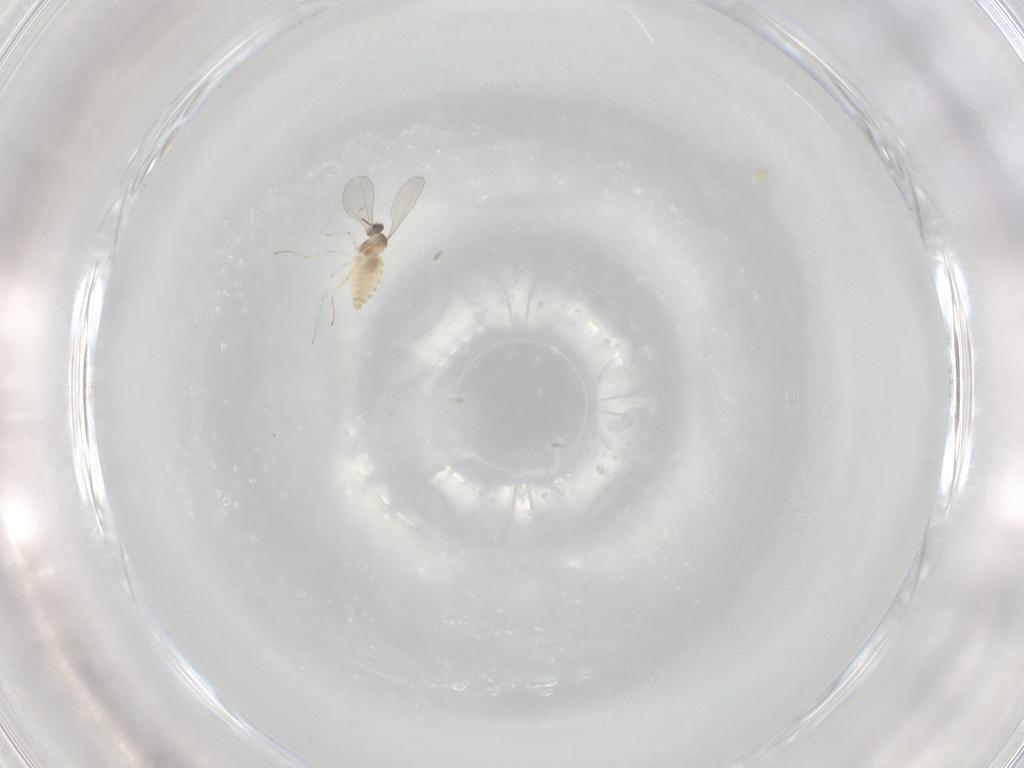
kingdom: Animalia
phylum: Arthropoda
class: Insecta
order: Diptera
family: Cecidomyiidae
